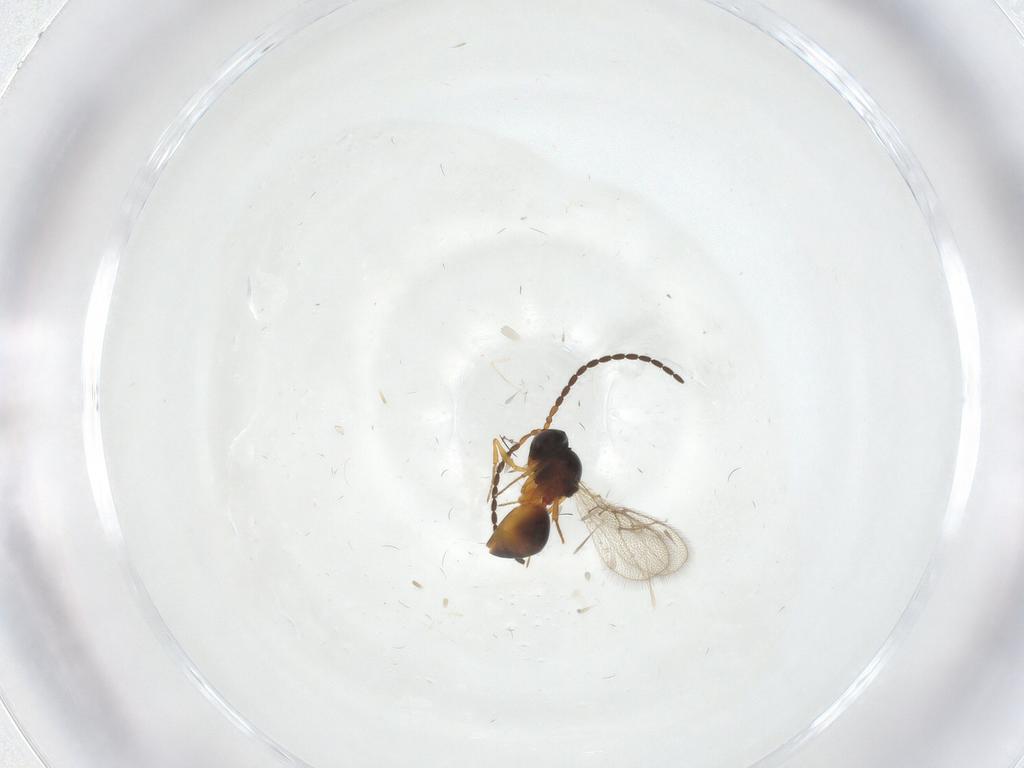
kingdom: Animalia
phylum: Arthropoda
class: Insecta
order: Hymenoptera
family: Figitidae
